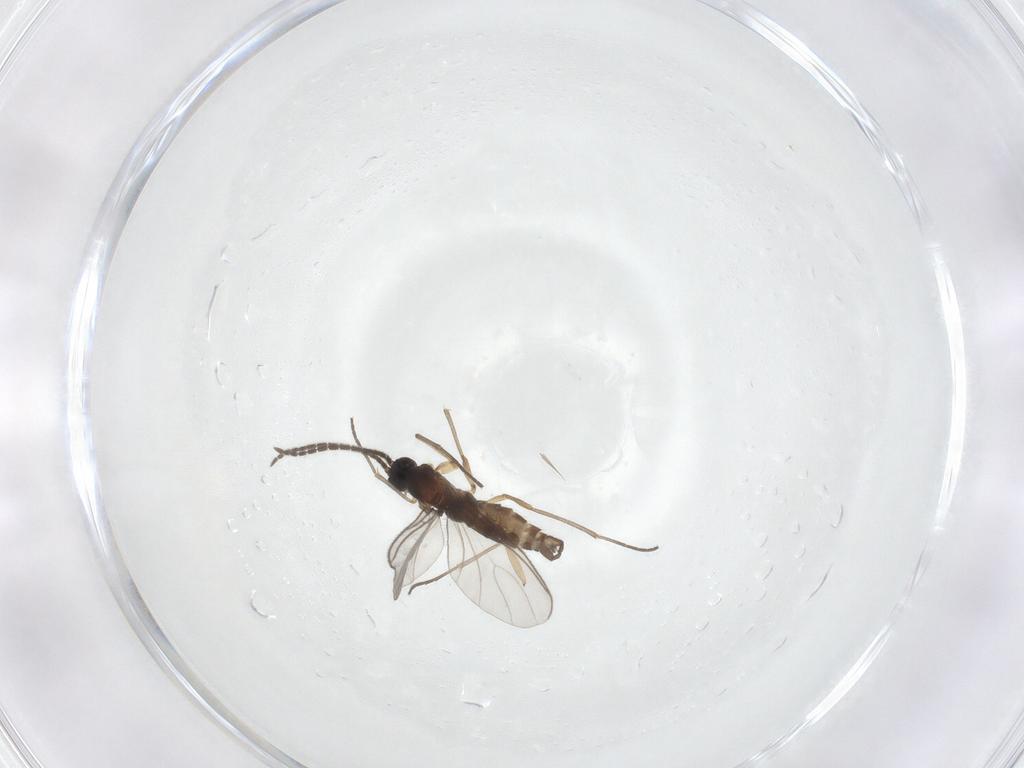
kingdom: Animalia
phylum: Arthropoda
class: Insecta
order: Diptera
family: Sciaridae
